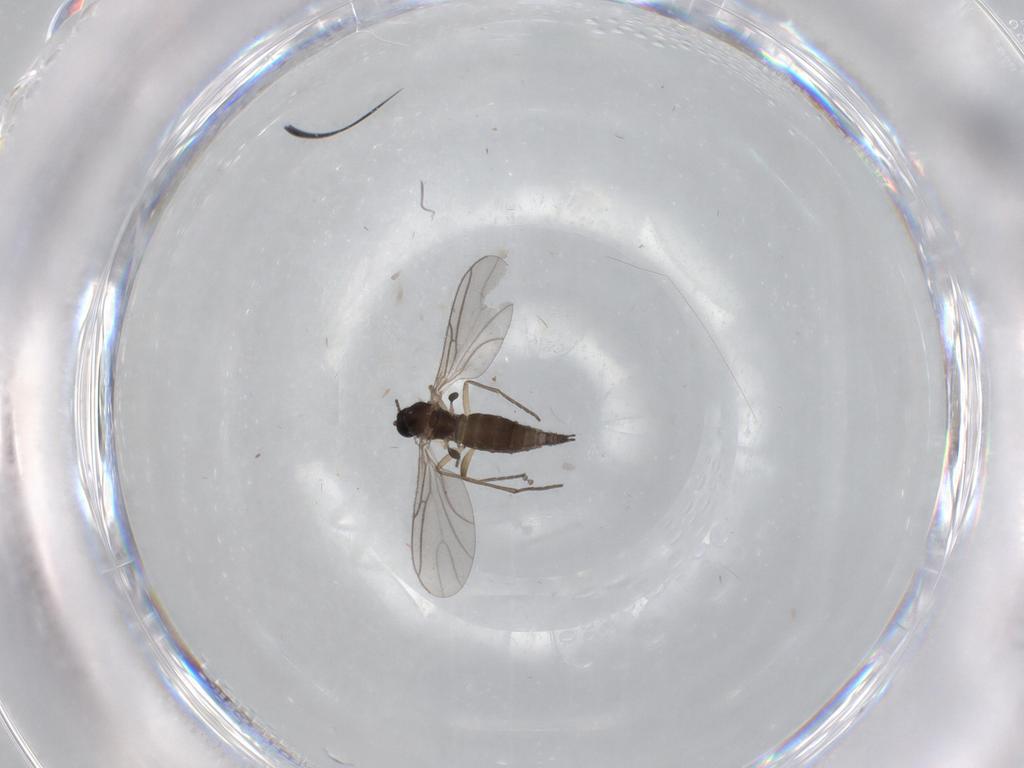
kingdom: Animalia
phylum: Arthropoda
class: Insecta
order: Diptera
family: Sciaridae
